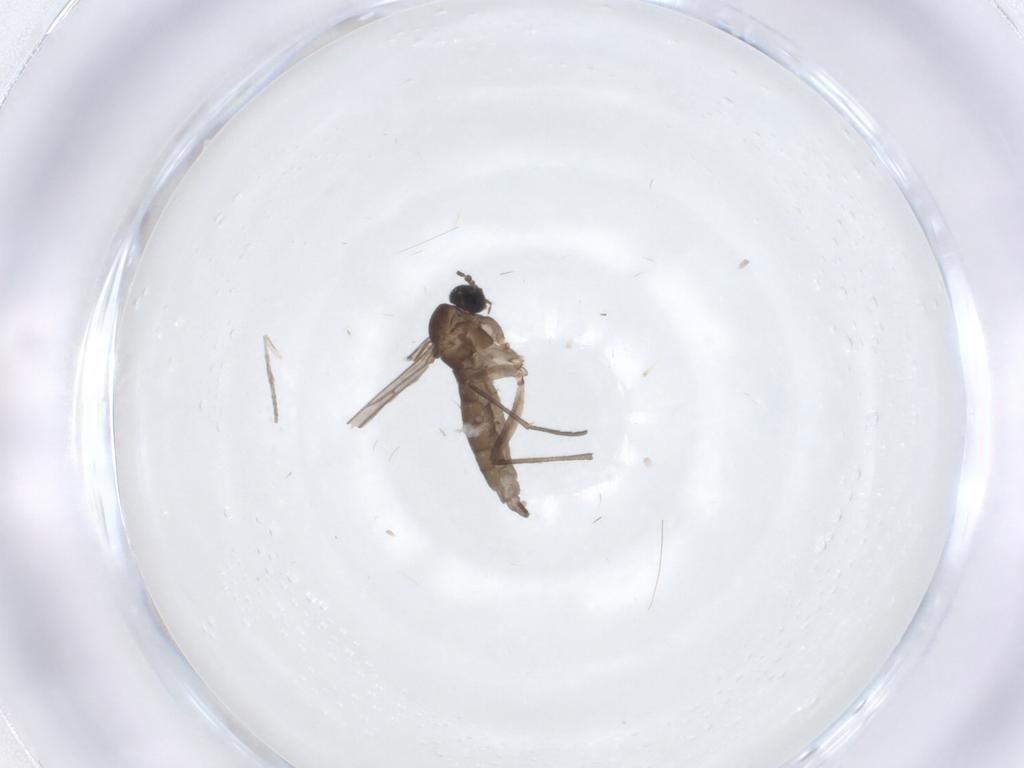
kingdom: Animalia
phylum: Arthropoda
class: Insecta
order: Diptera
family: Sciaridae
